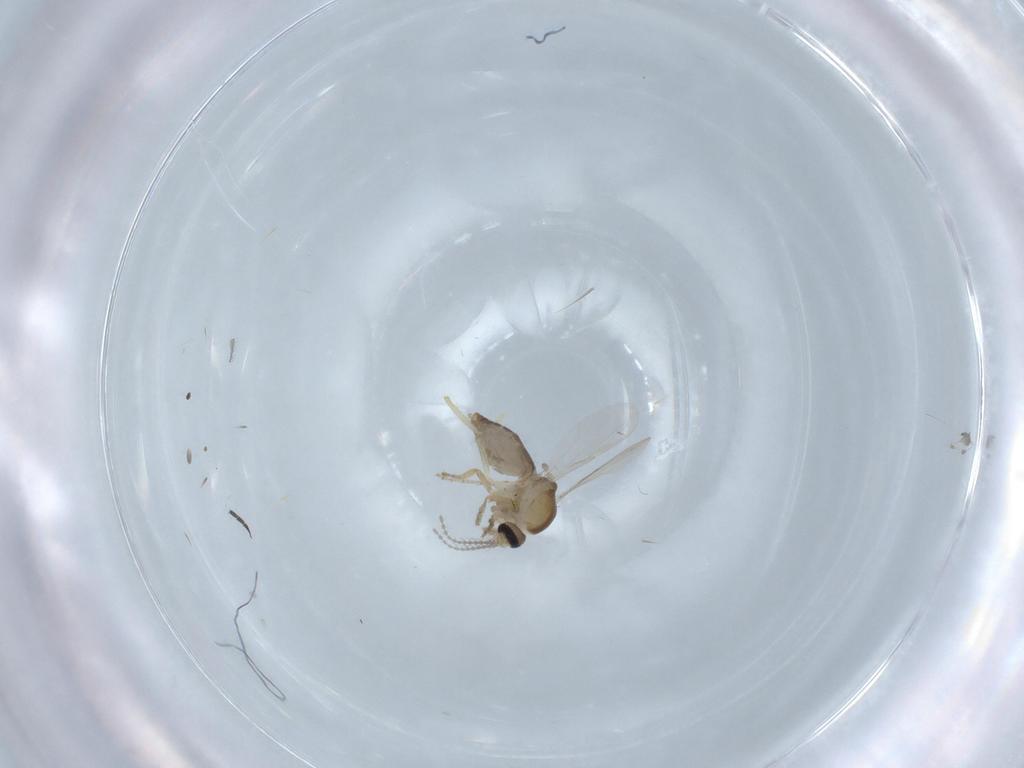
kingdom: Animalia
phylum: Arthropoda
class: Insecta
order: Diptera
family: Ceratopogonidae
